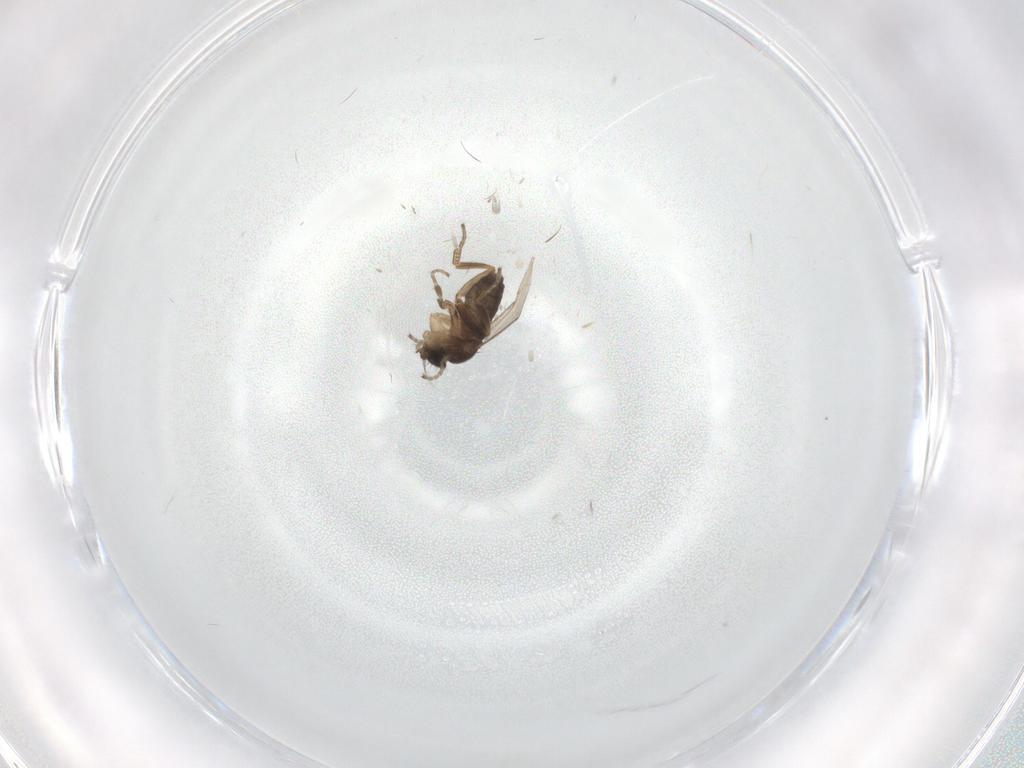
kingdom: Animalia
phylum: Arthropoda
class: Insecta
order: Diptera
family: Phoridae
